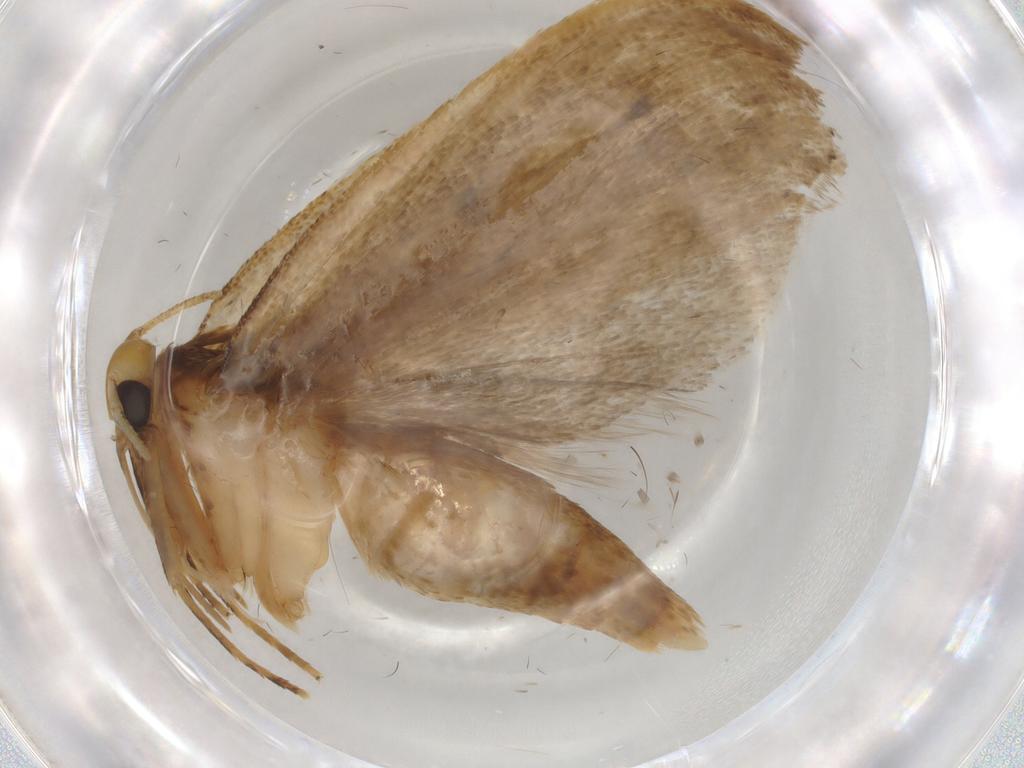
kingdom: Animalia
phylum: Arthropoda
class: Insecta
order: Lepidoptera
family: Gelechiidae
